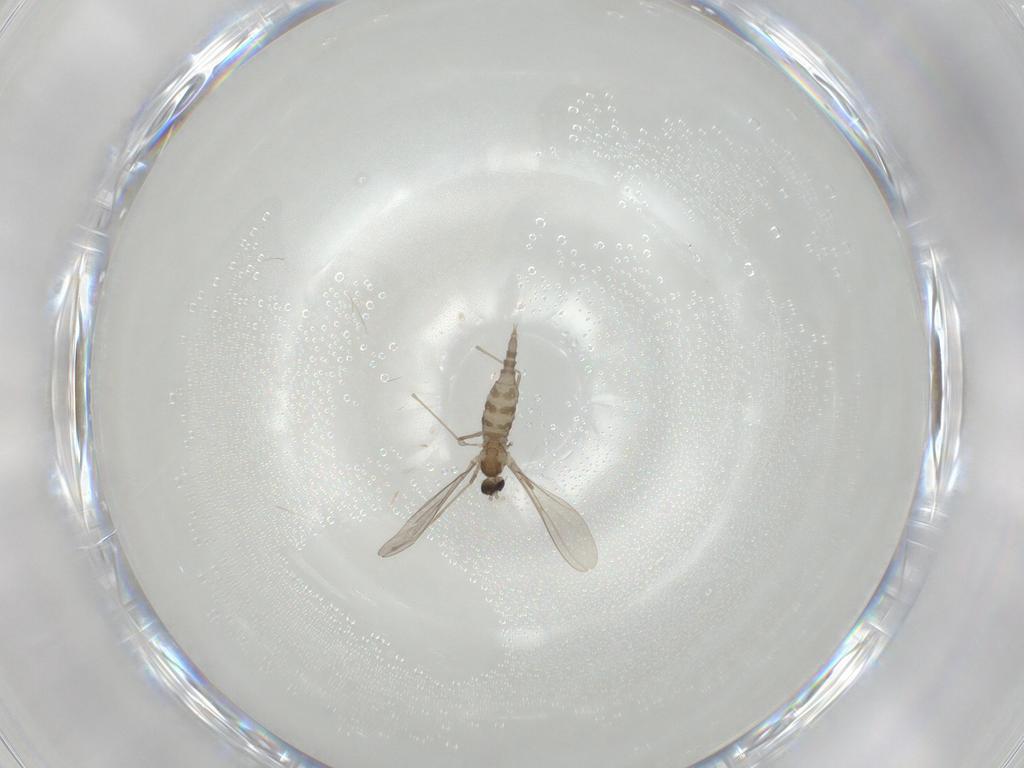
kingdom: Animalia
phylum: Arthropoda
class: Insecta
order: Diptera
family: Cecidomyiidae
